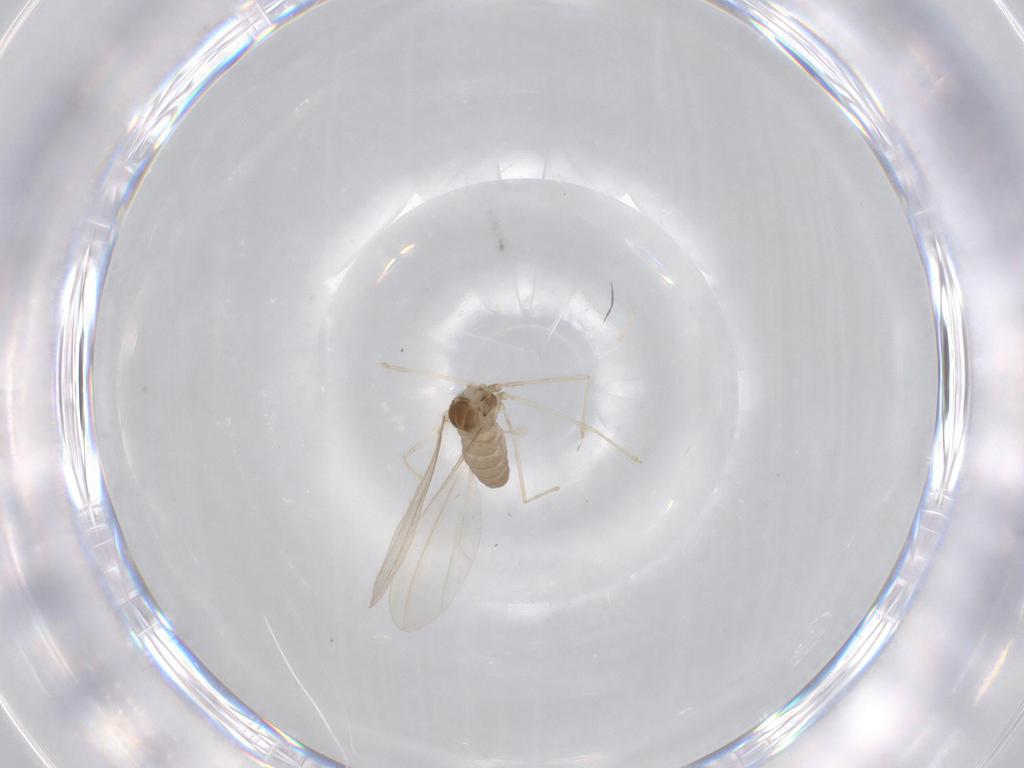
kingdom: Animalia
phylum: Arthropoda
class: Insecta
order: Diptera
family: Cecidomyiidae
